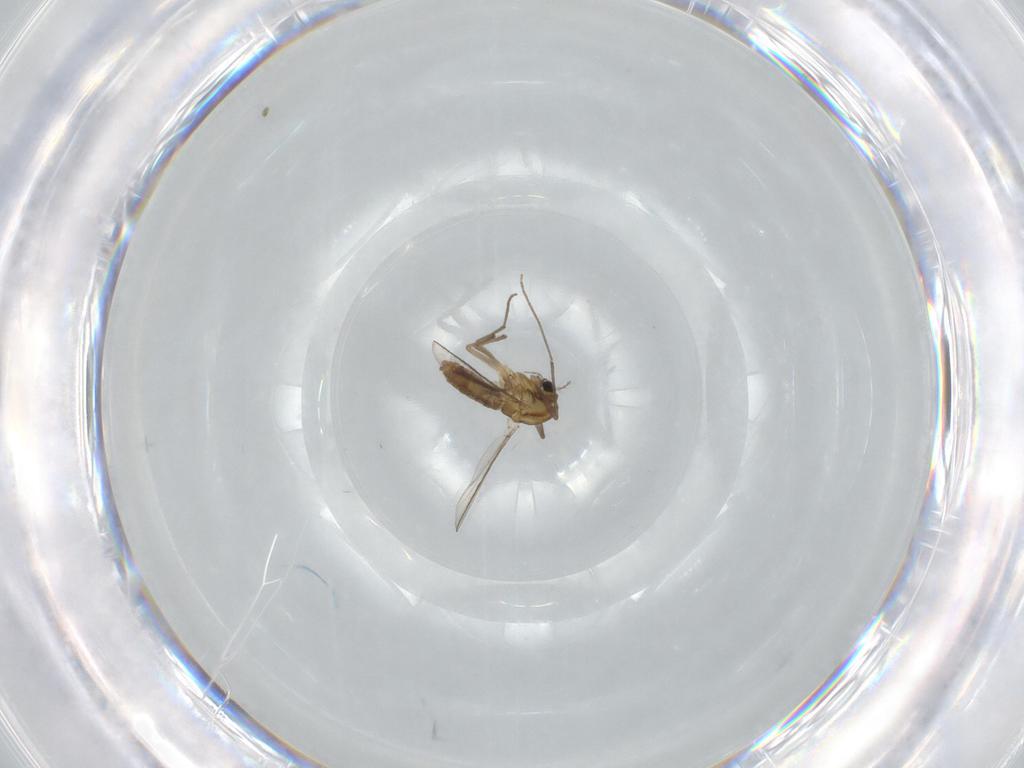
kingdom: Animalia
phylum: Arthropoda
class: Insecta
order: Diptera
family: Chironomidae
